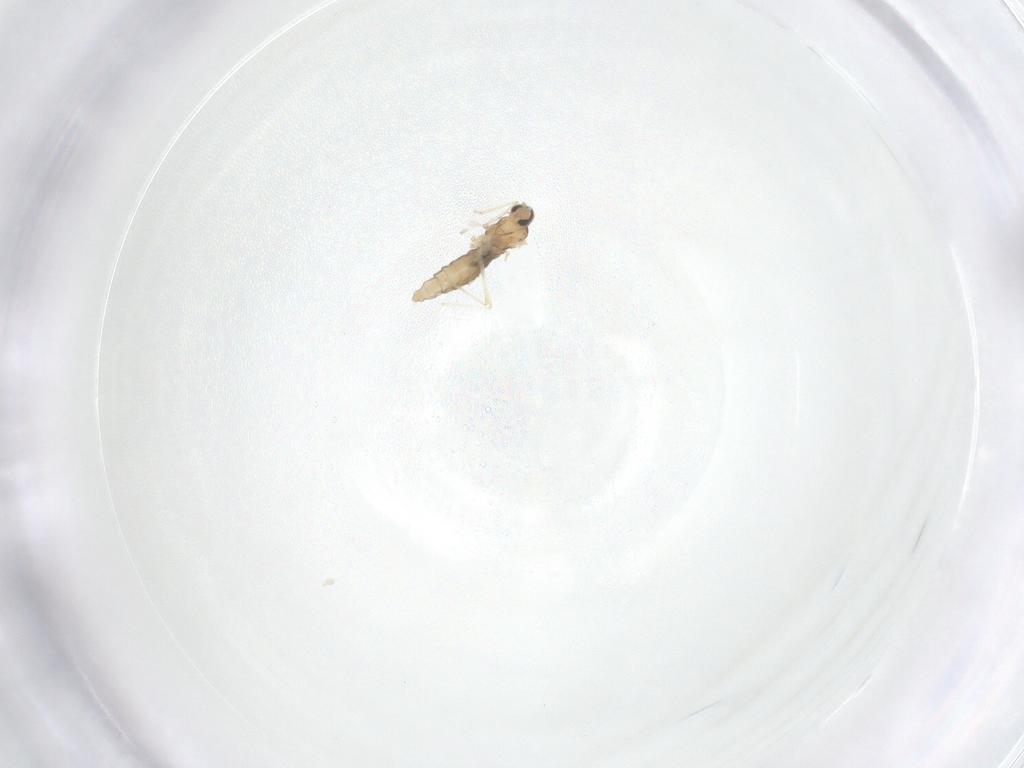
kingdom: Animalia
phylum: Arthropoda
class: Insecta
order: Diptera
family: Cecidomyiidae
